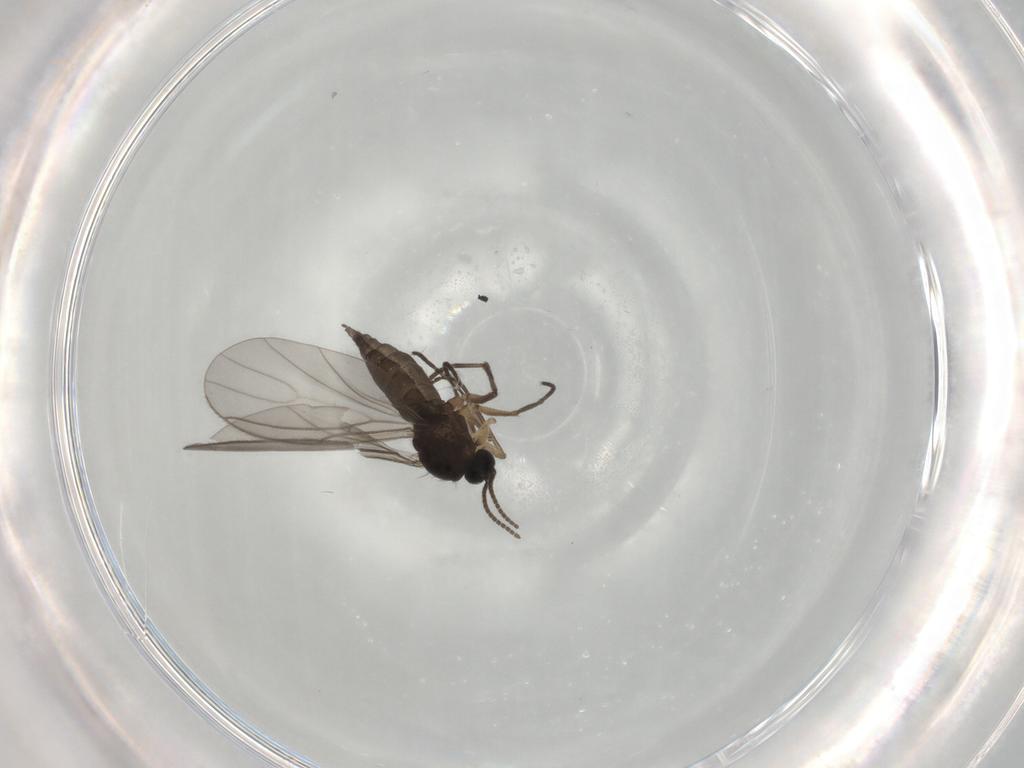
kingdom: Animalia
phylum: Arthropoda
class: Insecta
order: Diptera
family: Sciaridae
